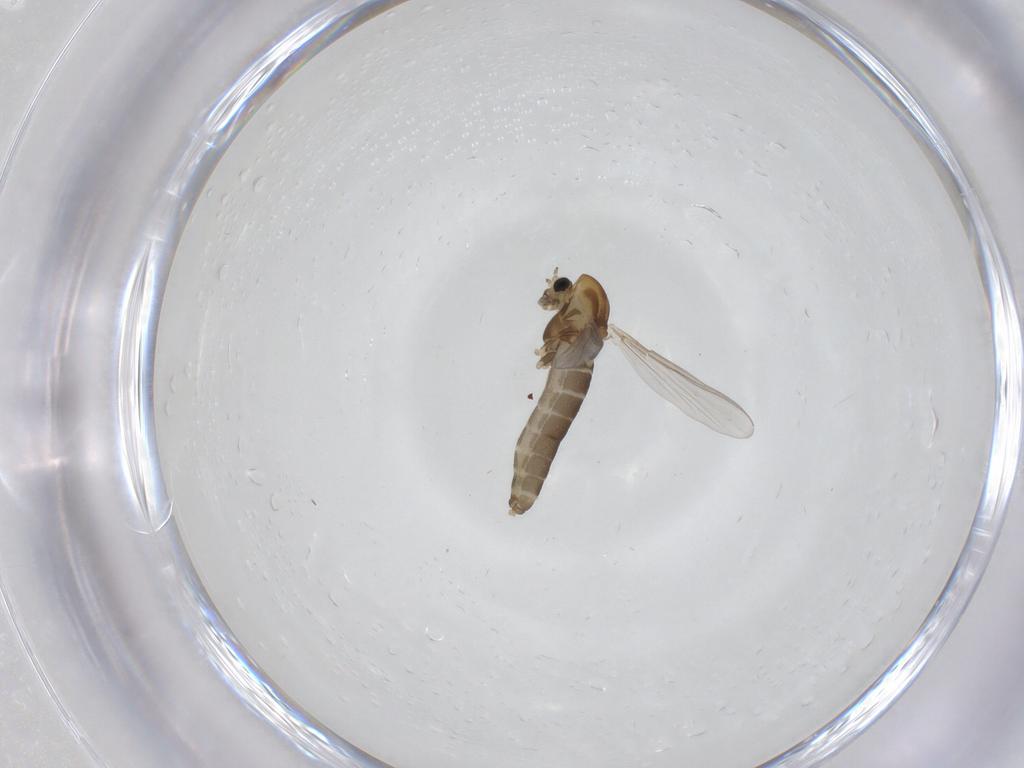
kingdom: Animalia
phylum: Arthropoda
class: Insecta
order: Diptera
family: Chironomidae
